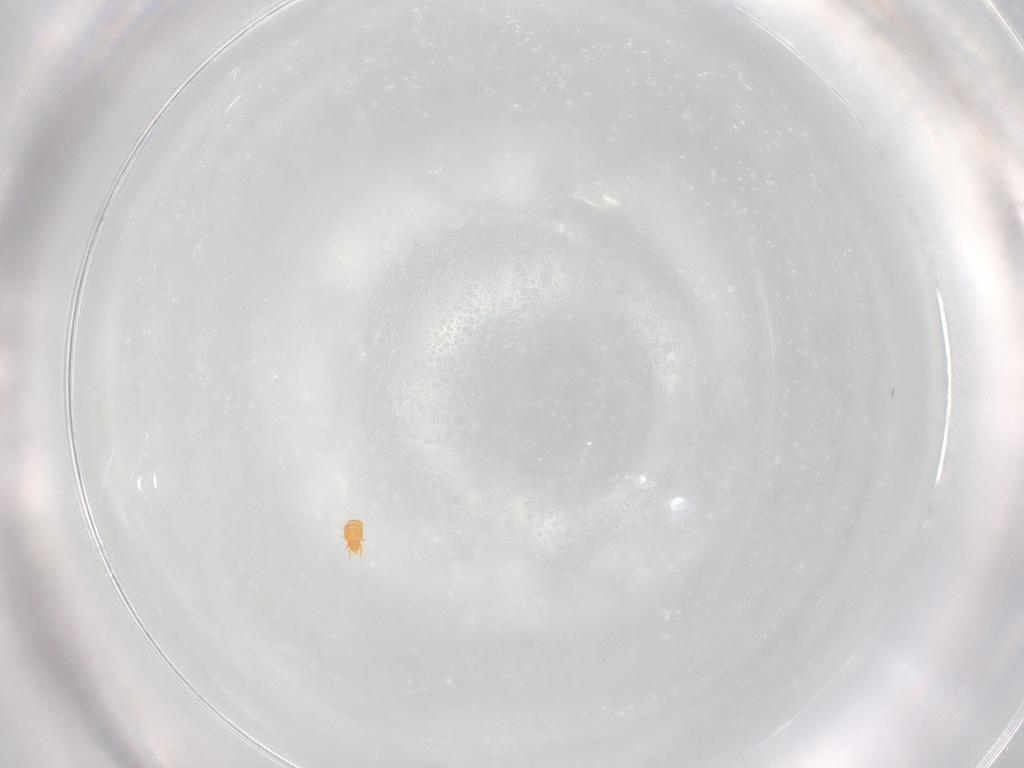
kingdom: Animalia
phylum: Arthropoda
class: Arachnida
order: Sarcoptiformes
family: Brachychthoniidae
